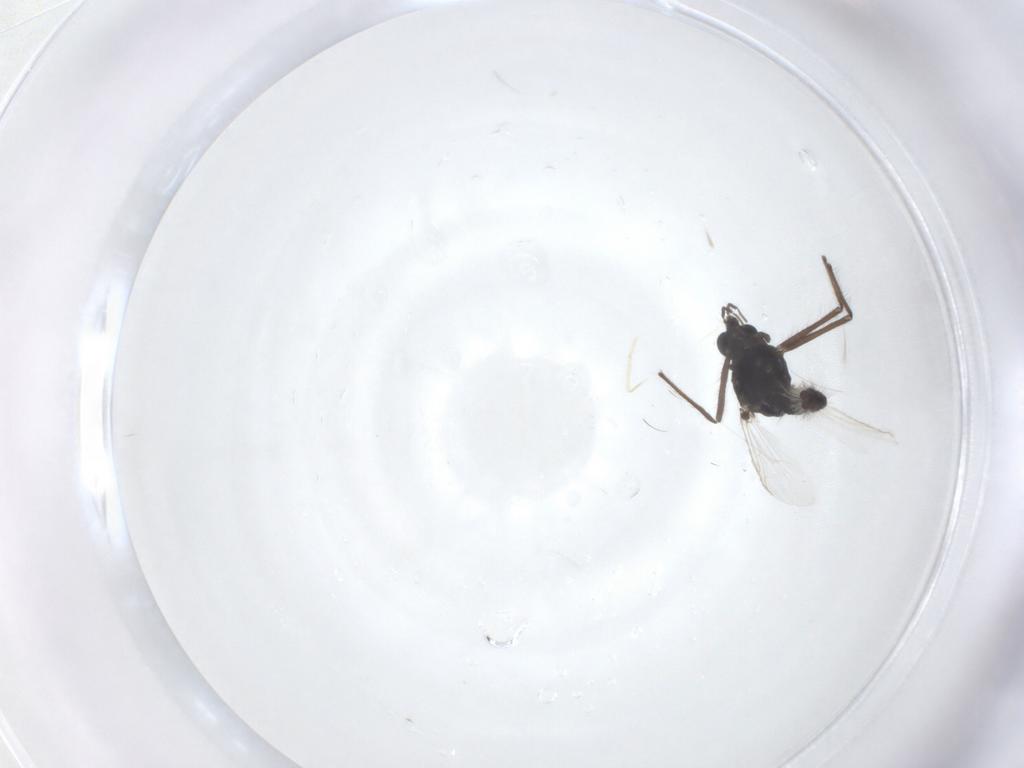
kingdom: Animalia
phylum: Arthropoda
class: Insecta
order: Diptera
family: Chironomidae
